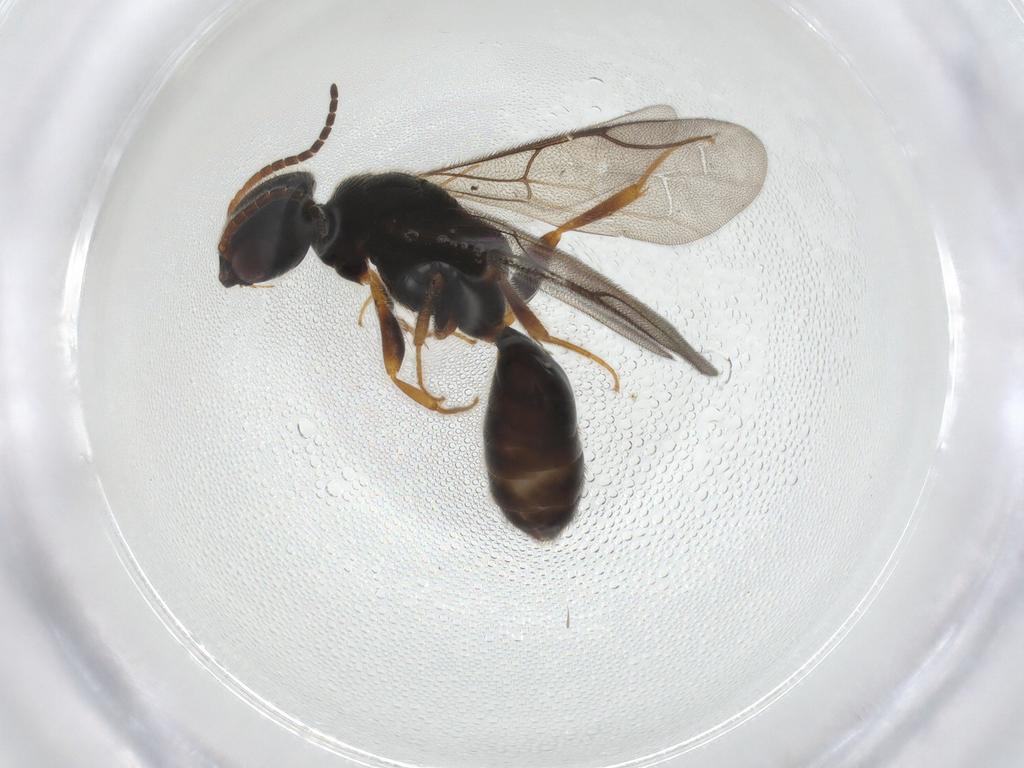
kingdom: Animalia
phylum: Arthropoda
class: Insecta
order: Hymenoptera
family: Bethylidae
